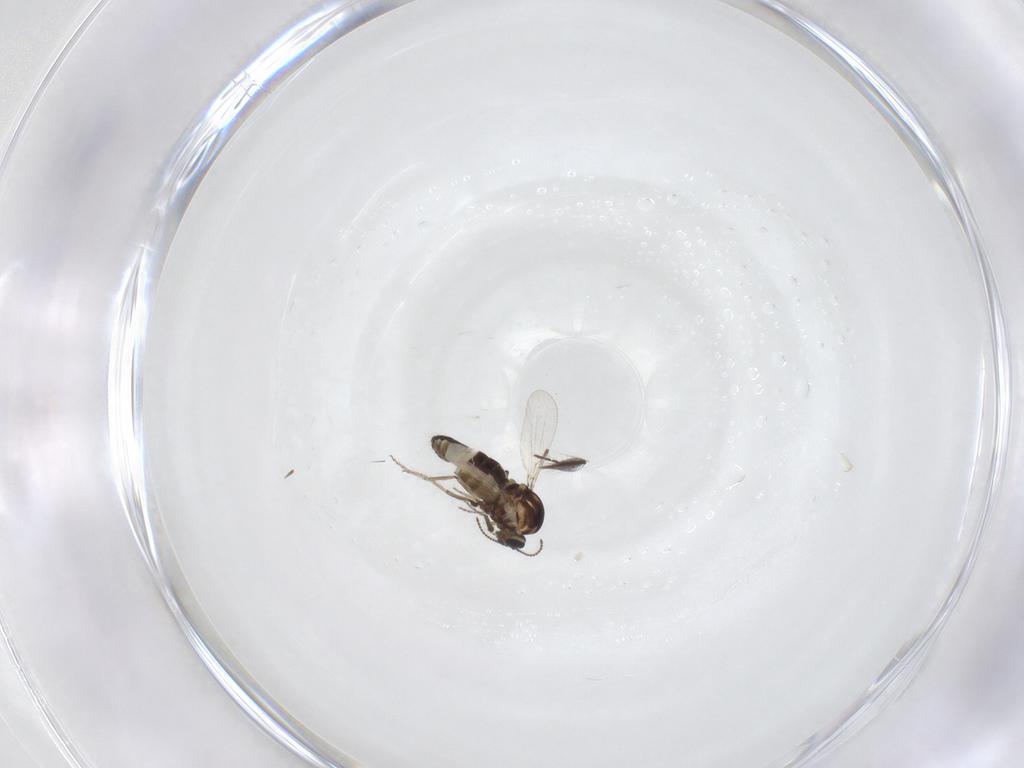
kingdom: Animalia
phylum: Arthropoda
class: Insecta
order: Diptera
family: Ceratopogonidae
